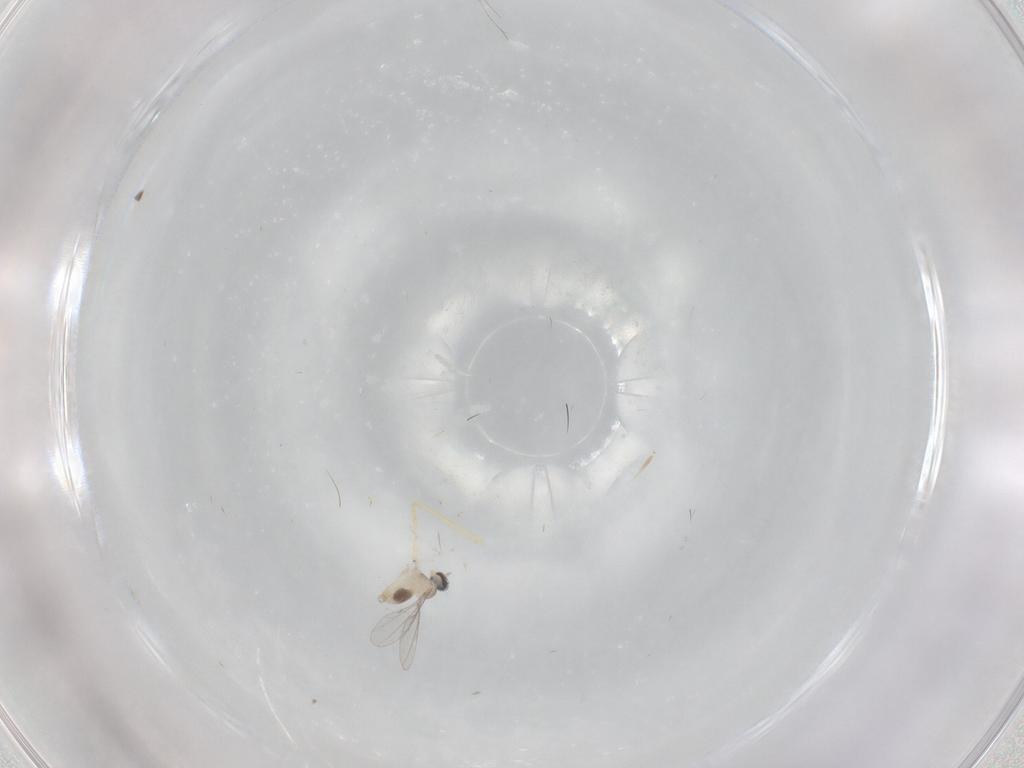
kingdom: Animalia
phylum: Arthropoda
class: Insecta
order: Diptera
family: Cecidomyiidae
